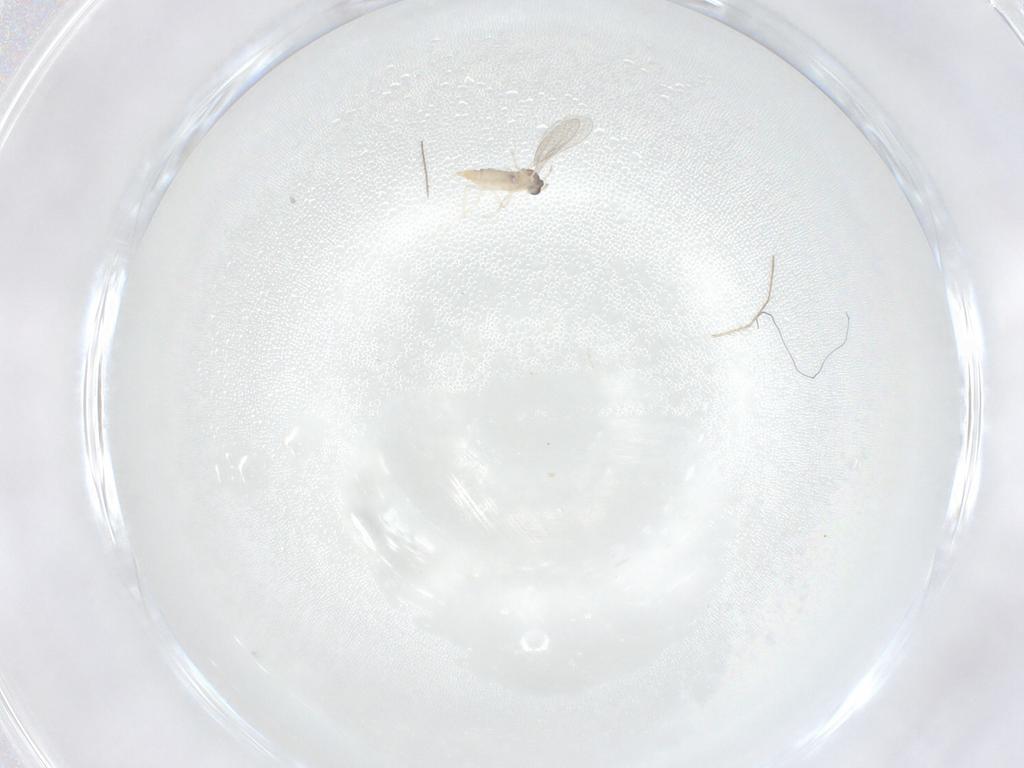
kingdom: Animalia
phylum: Arthropoda
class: Insecta
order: Diptera
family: Cecidomyiidae
